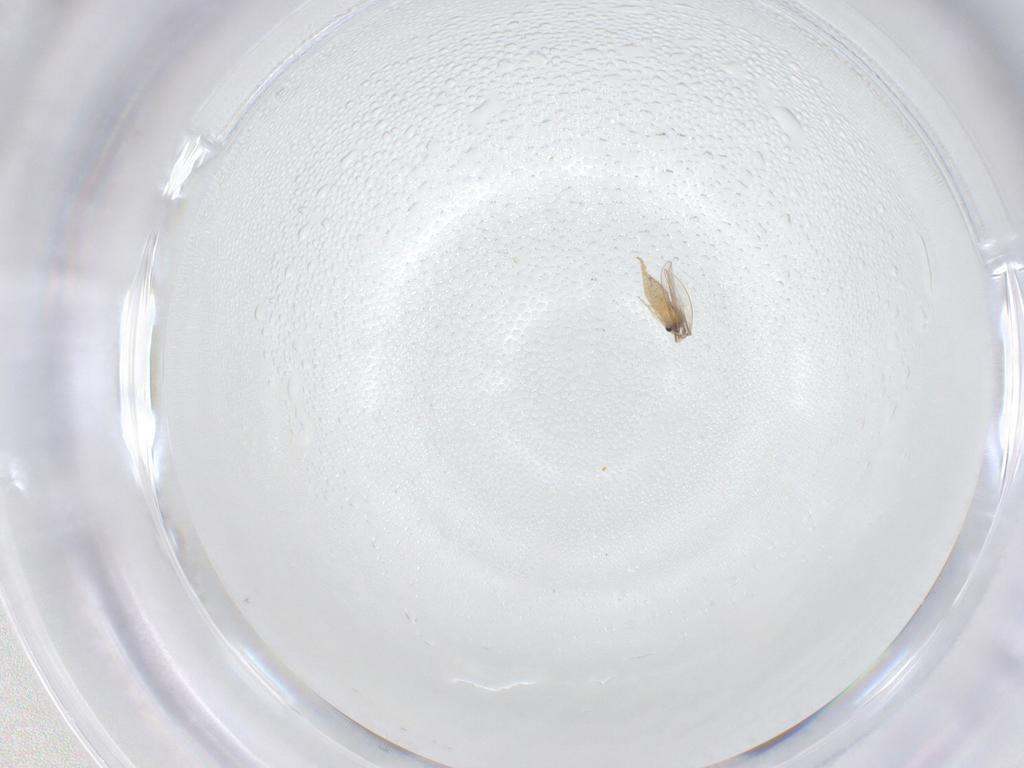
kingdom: Animalia
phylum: Arthropoda
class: Insecta
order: Diptera
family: Cecidomyiidae
